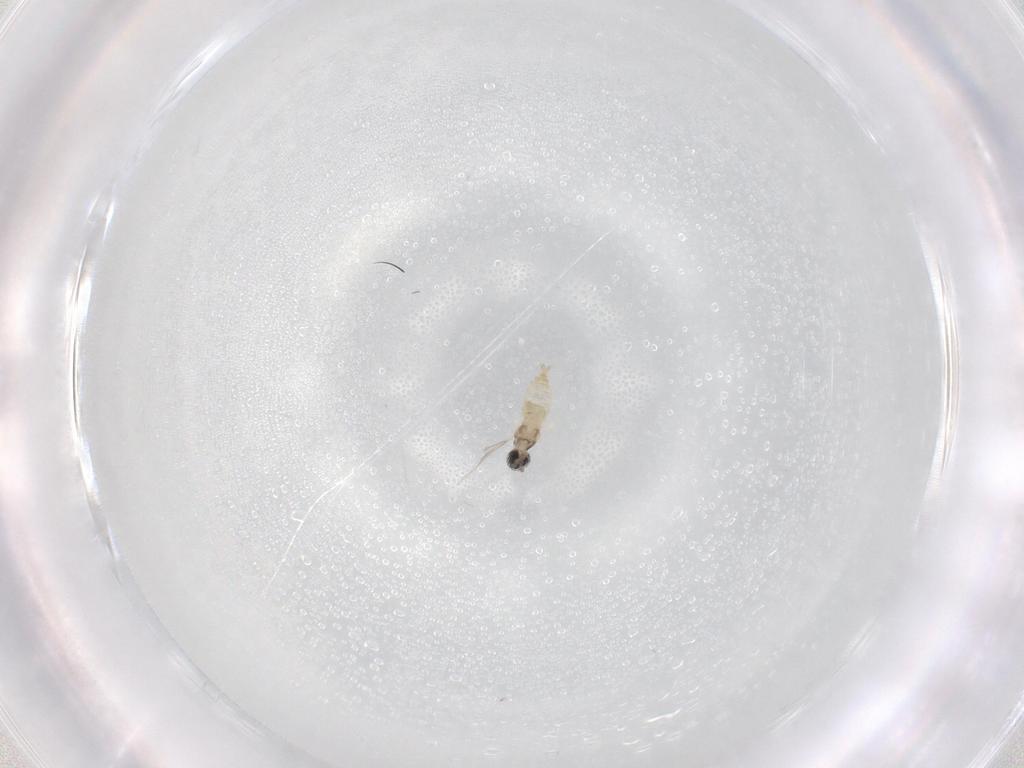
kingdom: Animalia
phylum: Arthropoda
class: Insecta
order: Diptera
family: Cecidomyiidae
